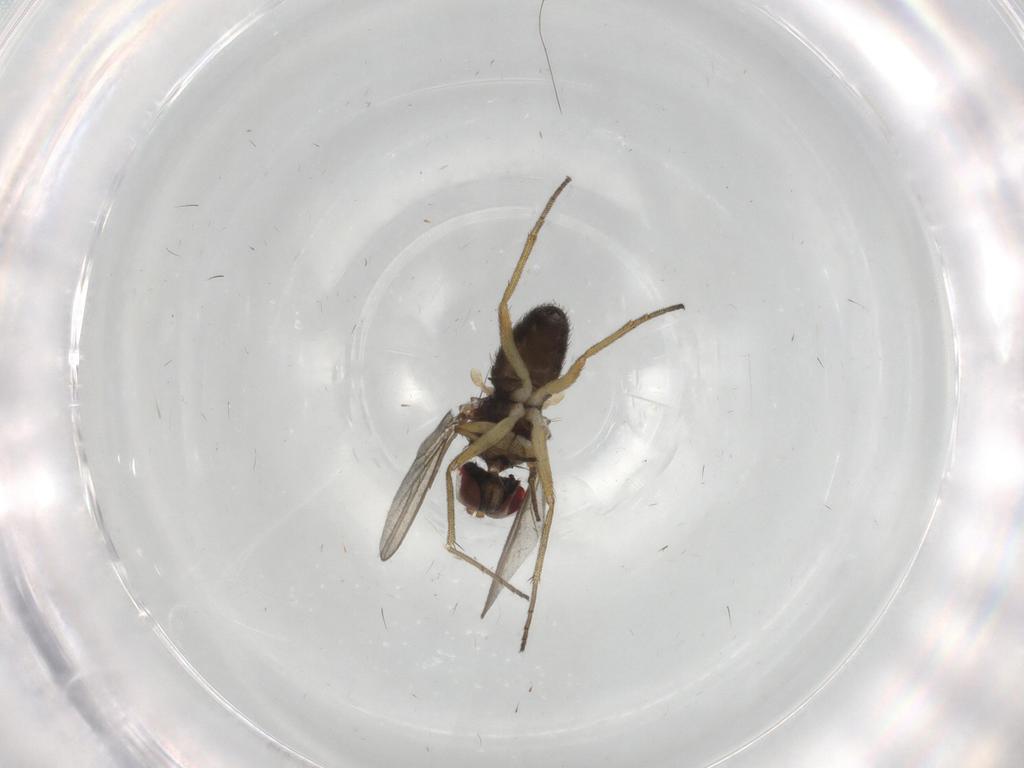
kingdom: Animalia
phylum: Arthropoda
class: Insecta
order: Diptera
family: Dolichopodidae
